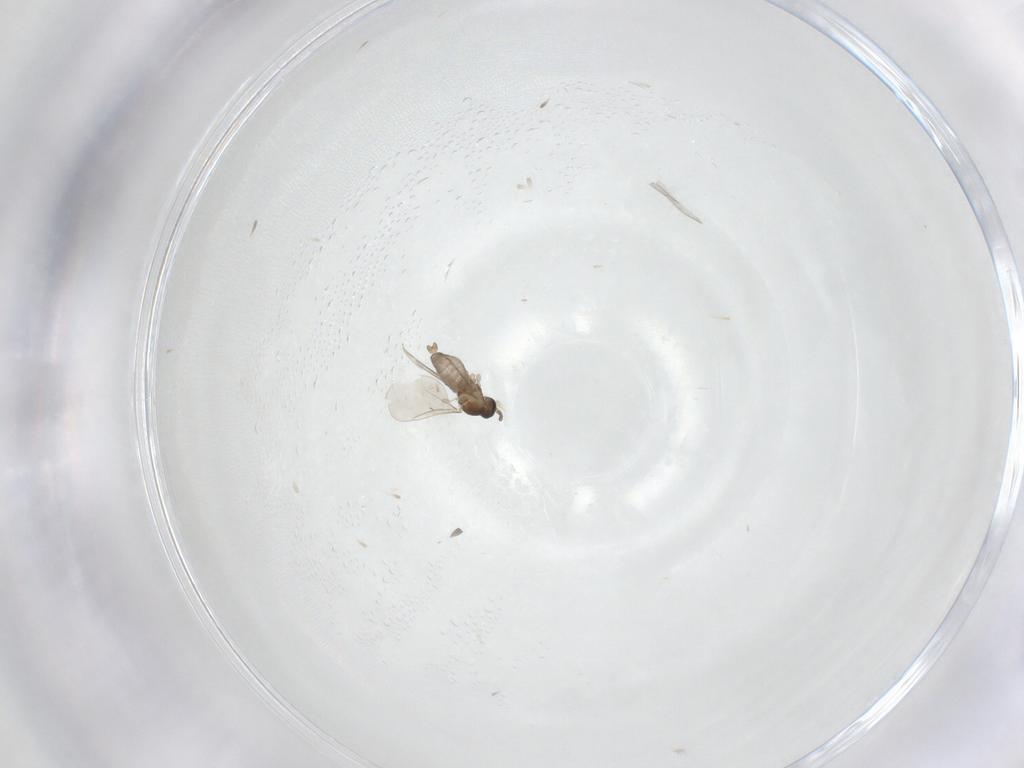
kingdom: Animalia
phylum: Arthropoda
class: Insecta
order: Diptera
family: Cecidomyiidae
